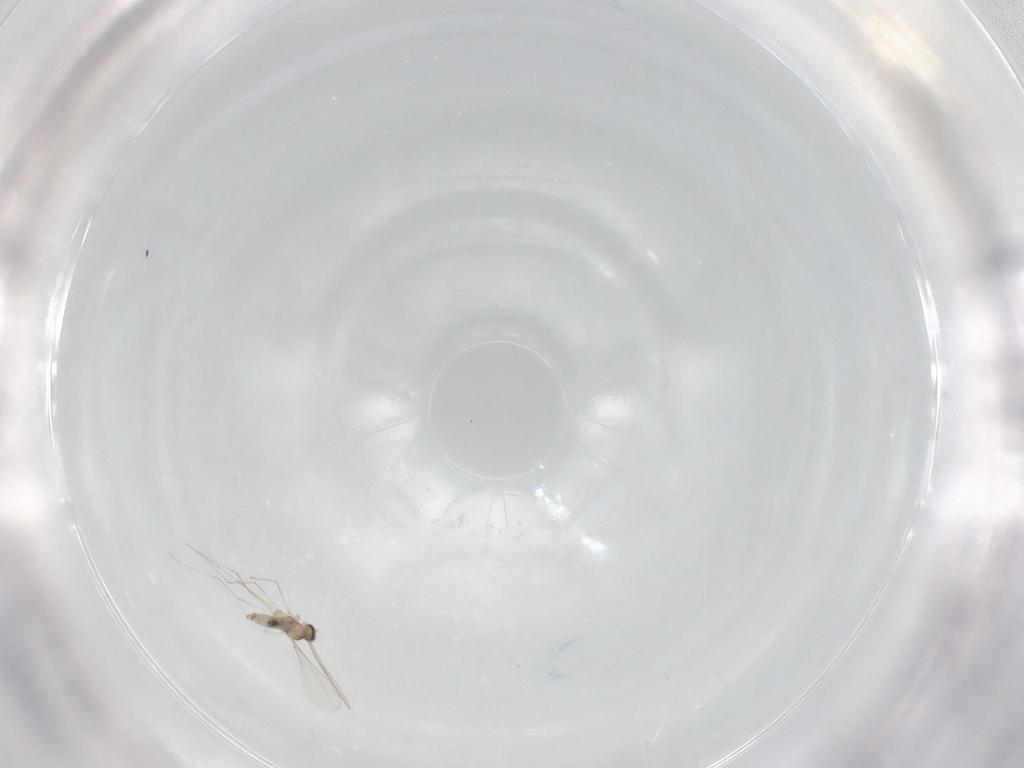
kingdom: Animalia
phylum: Arthropoda
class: Insecta
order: Diptera
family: Cecidomyiidae
